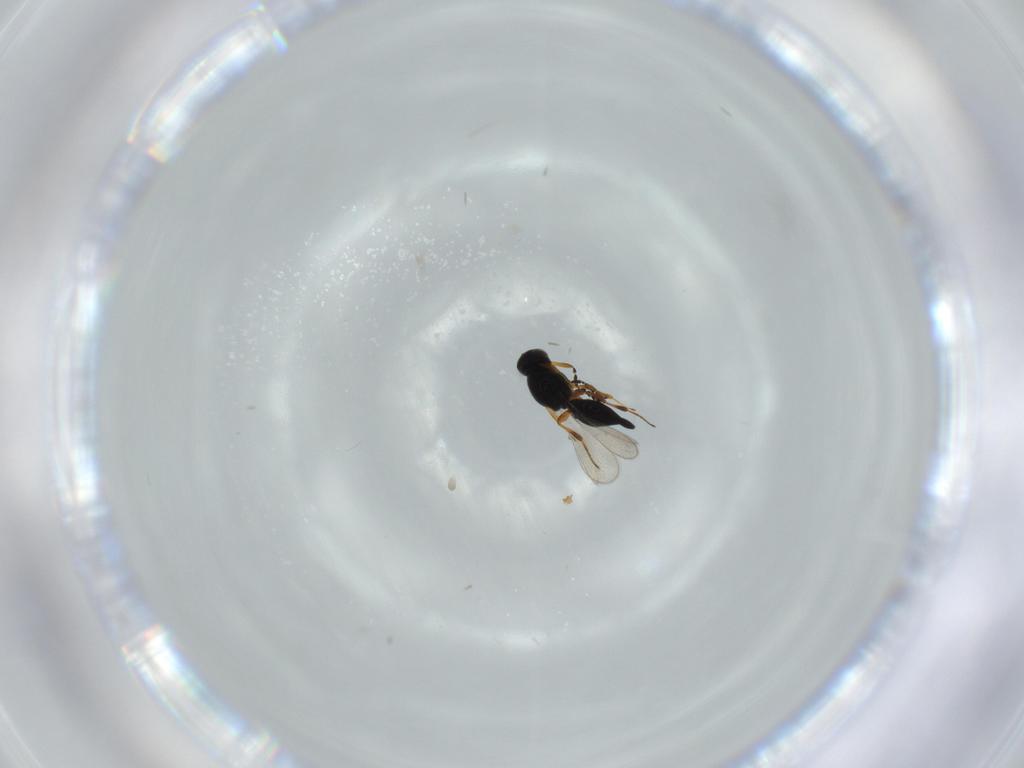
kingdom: Animalia
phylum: Arthropoda
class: Insecta
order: Hymenoptera
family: Platygastridae
